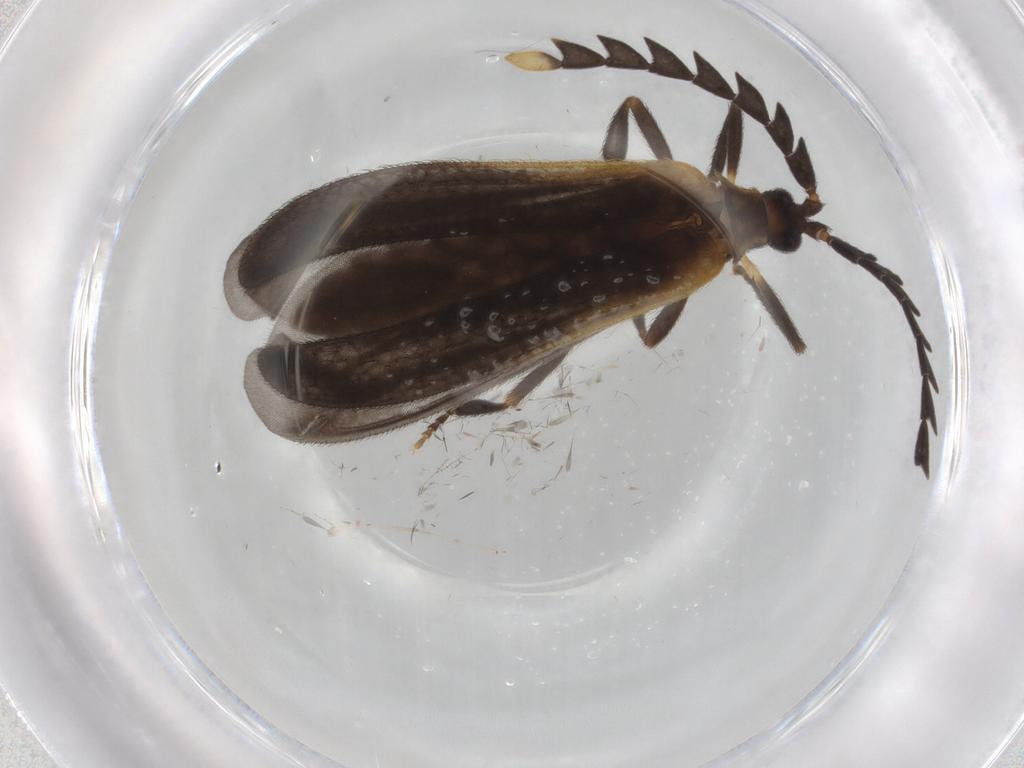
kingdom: Animalia
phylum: Arthropoda
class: Insecta
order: Coleoptera
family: Lycidae
